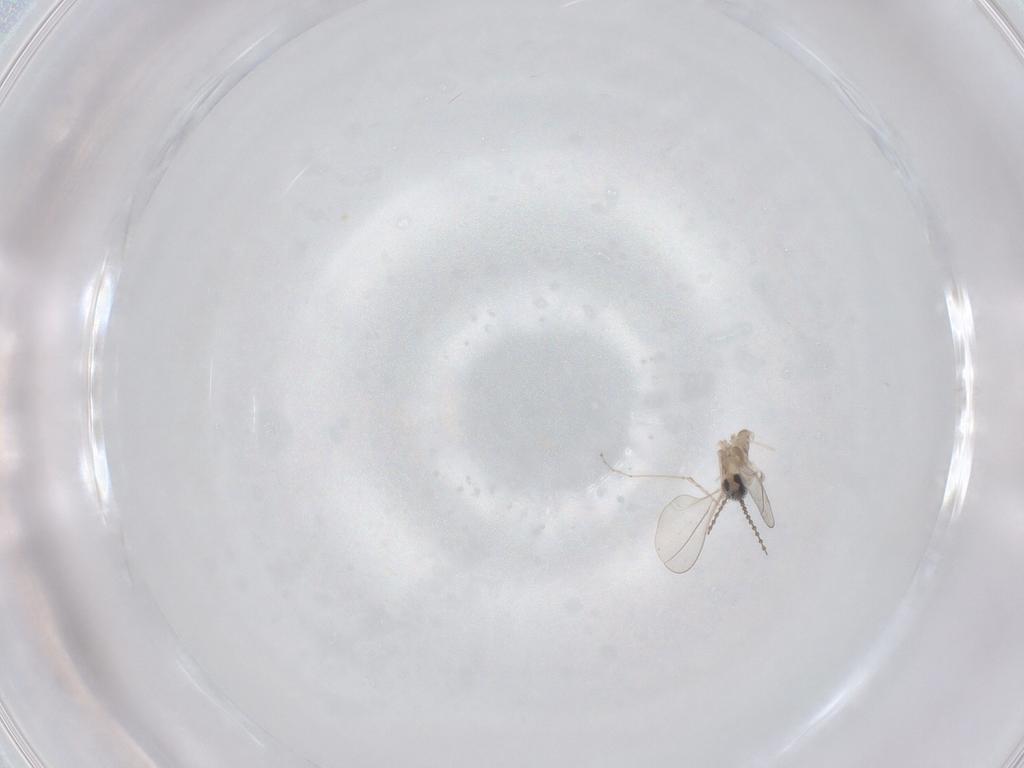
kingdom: Animalia
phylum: Arthropoda
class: Insecta
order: Diptera
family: Cecidomyiidae
